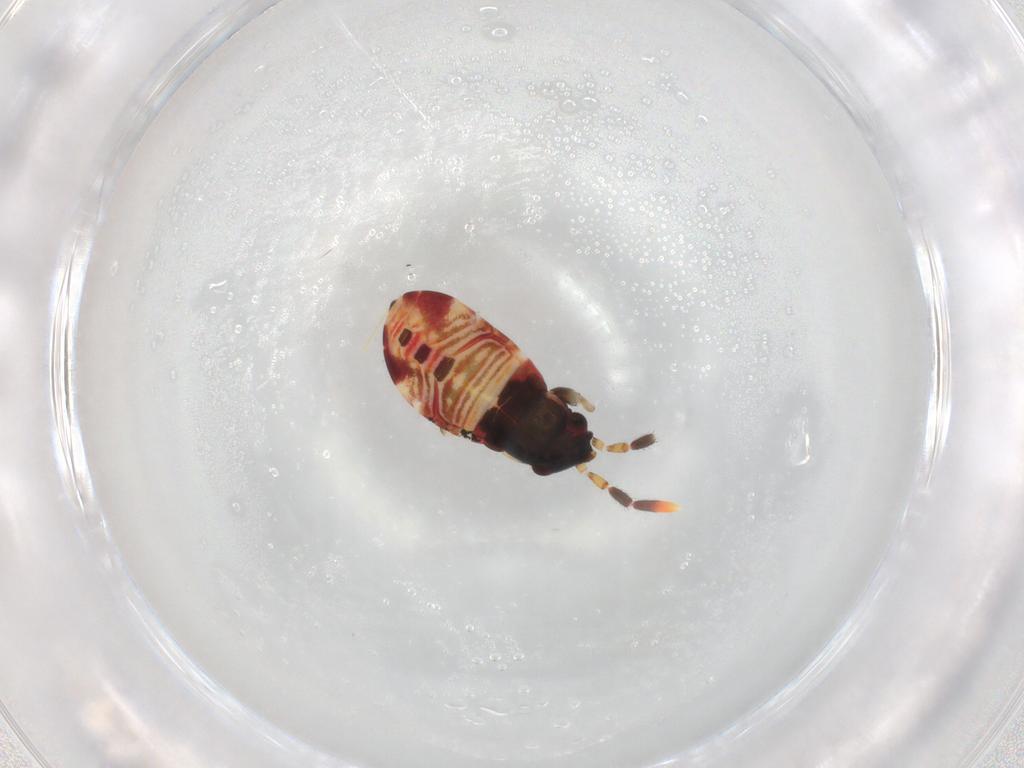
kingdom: Animalia
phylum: Arthropoda
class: Insecta
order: Hemiptera
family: Rhyparochromidae
